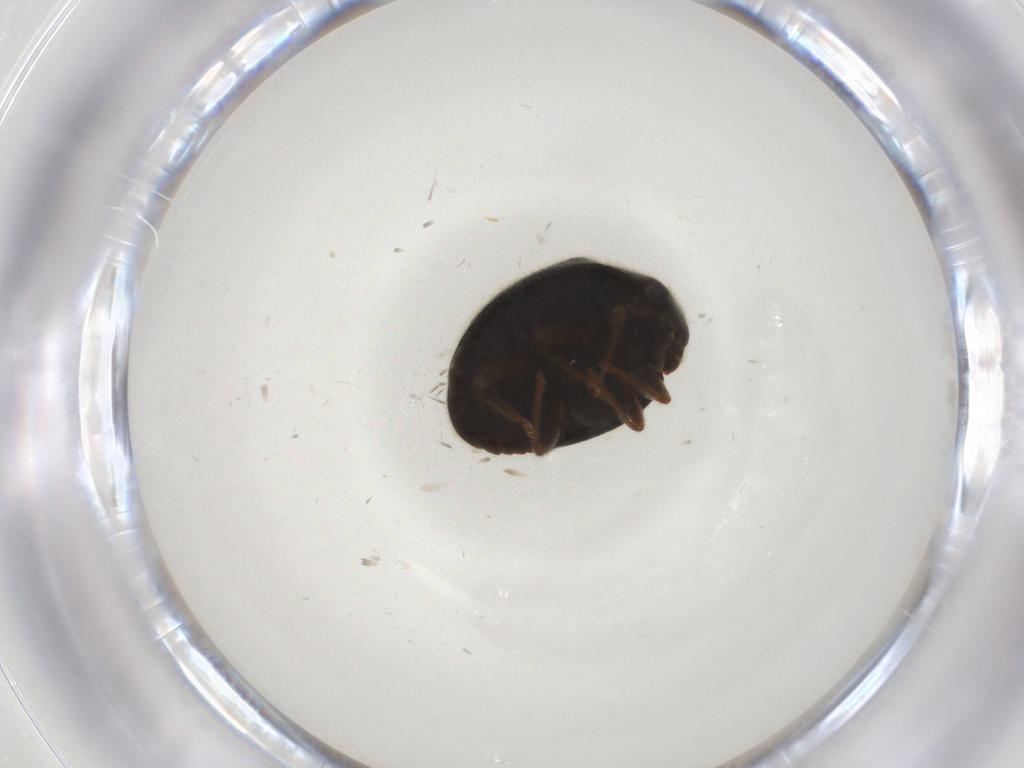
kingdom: Animalia
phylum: Arthropoda
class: Insecta
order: Coleoptera
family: Coccinellidae
